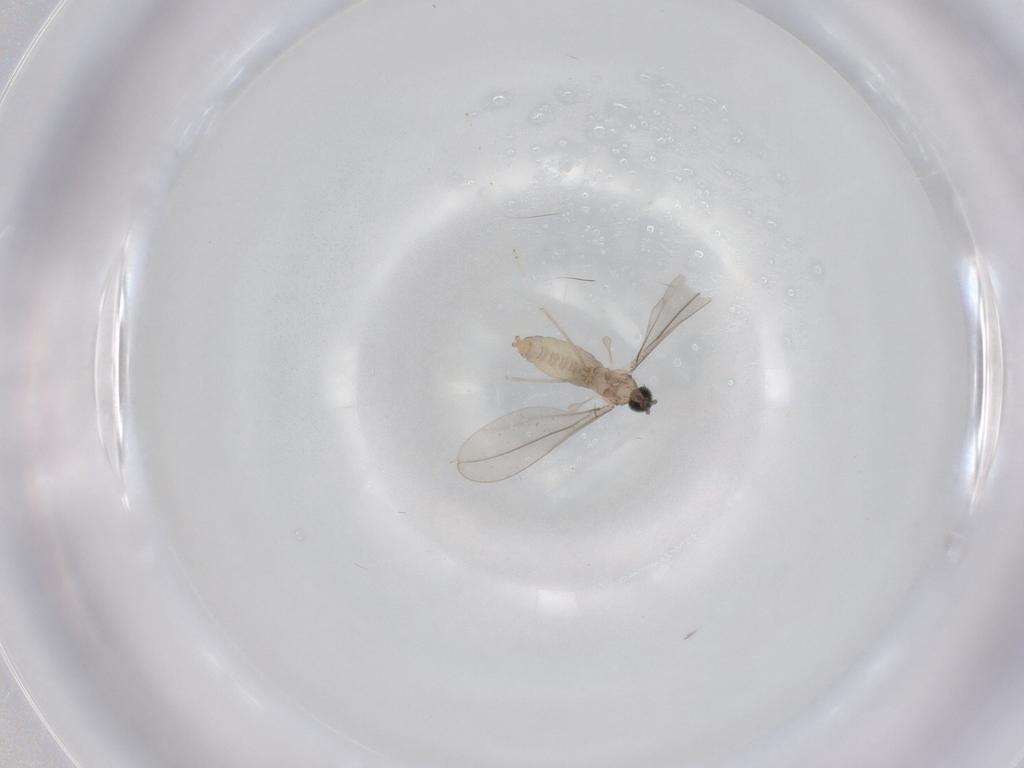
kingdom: Animalia
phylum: Arthropoda
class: Insecta
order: Diptera
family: Cecidomyiidae
